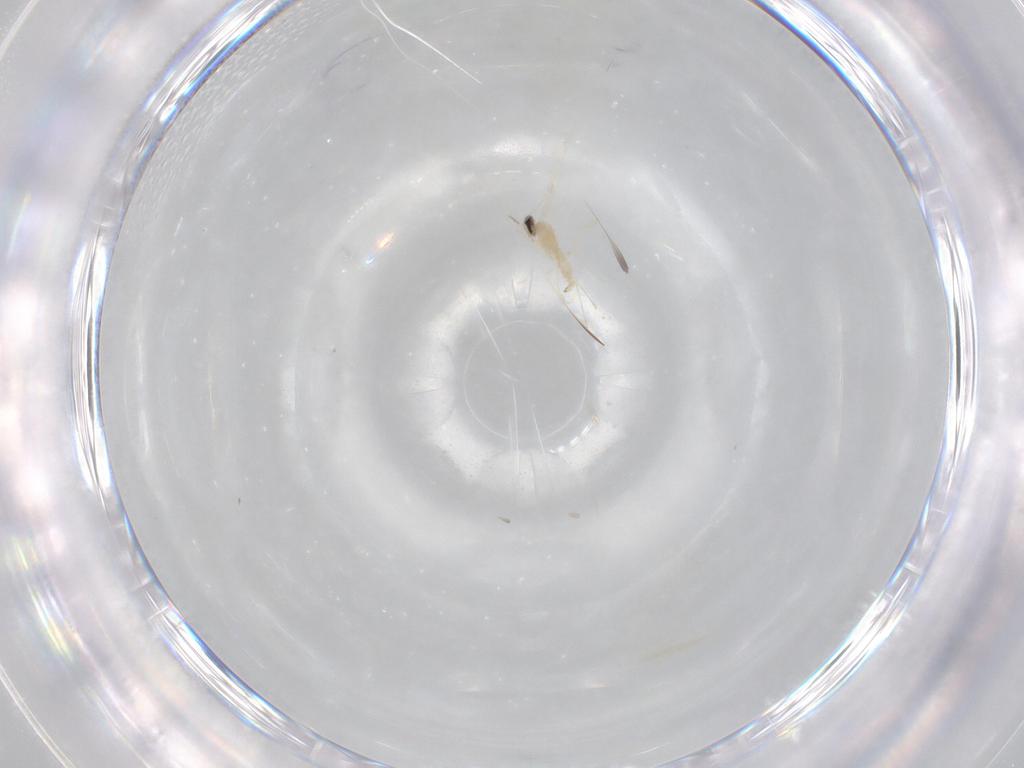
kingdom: Animalia
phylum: Arthropoda
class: Insecta
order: Diptera
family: Cecidomyiidae
